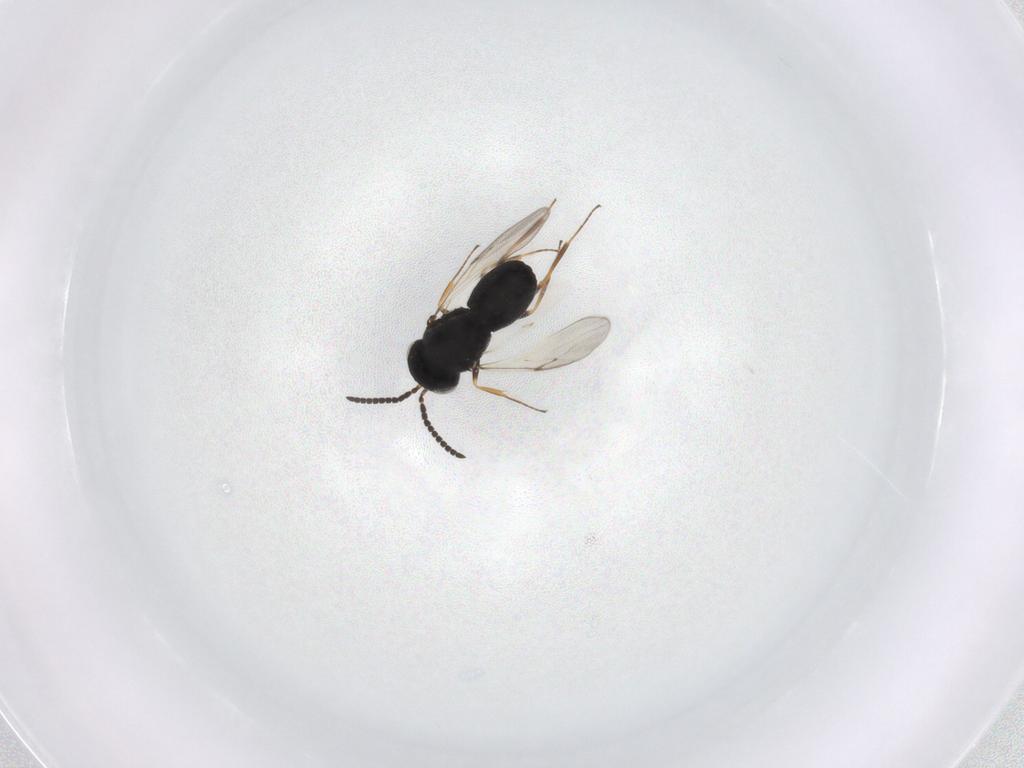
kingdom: Animalia
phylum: Arthropoda
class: Insecta
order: Hymenoptera
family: Scelionidae
